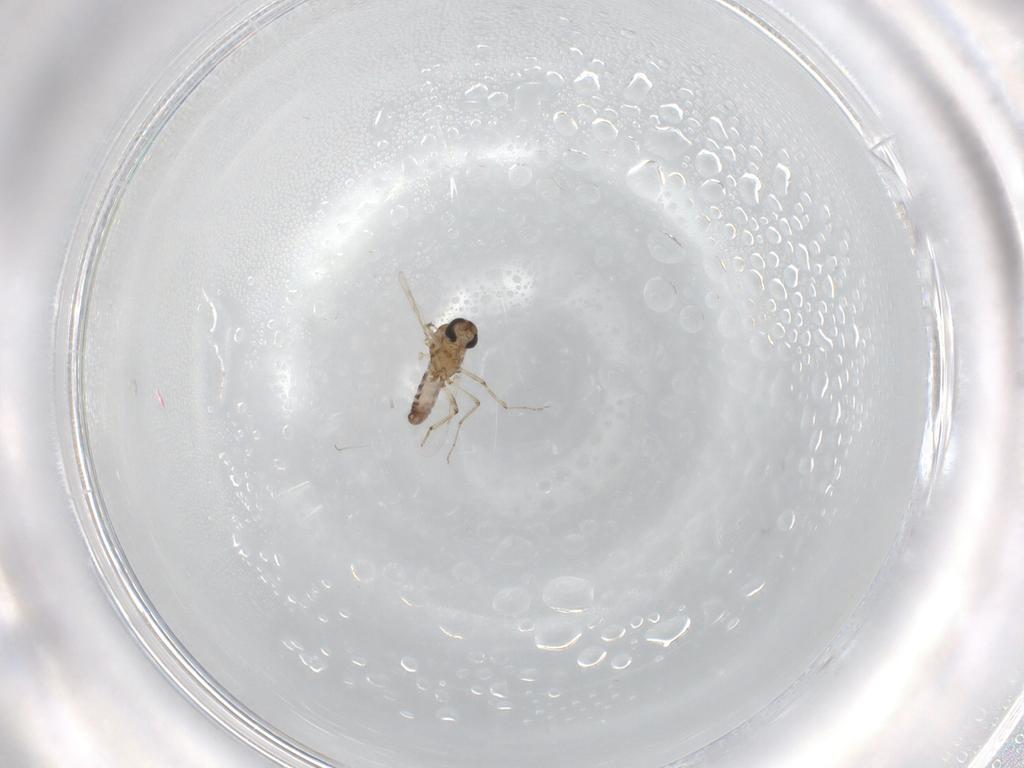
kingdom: Animalia
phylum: Arthropoda
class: Insecta
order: Diptera
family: Ceratopogonidae
